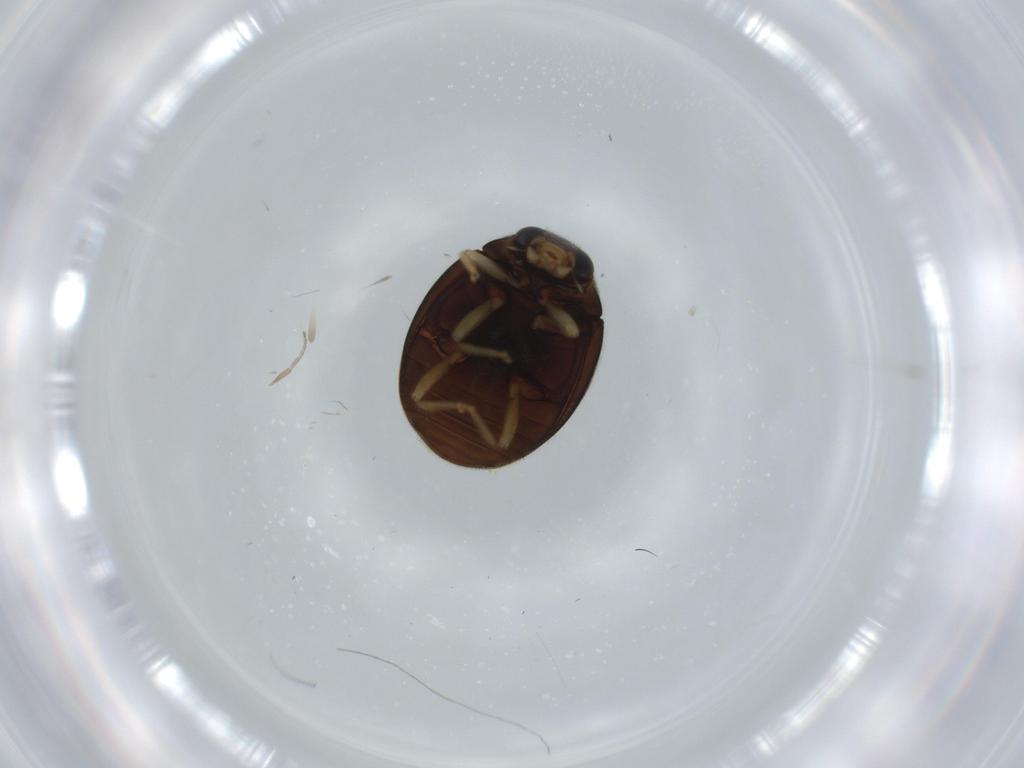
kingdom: Animalia
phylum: Arthropoda
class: Insecta
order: Coleoptera
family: Coccinellidae
